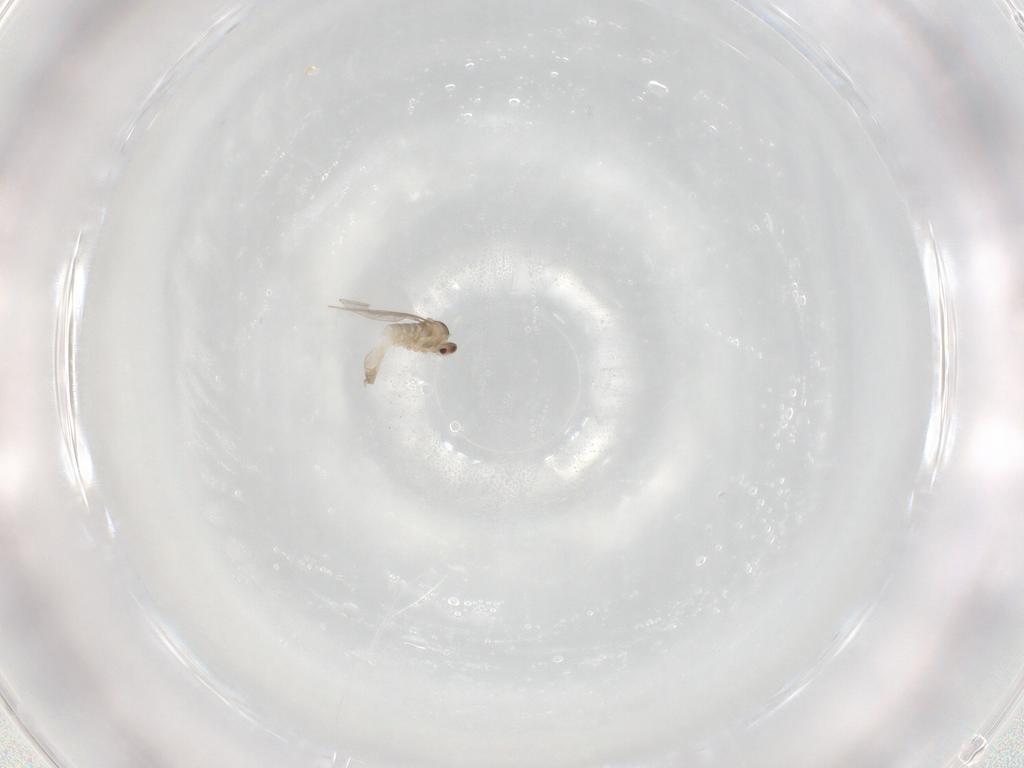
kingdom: Animalia
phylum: Arthropoda
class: Insecta
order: Diptera
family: Cecidomyiidae
